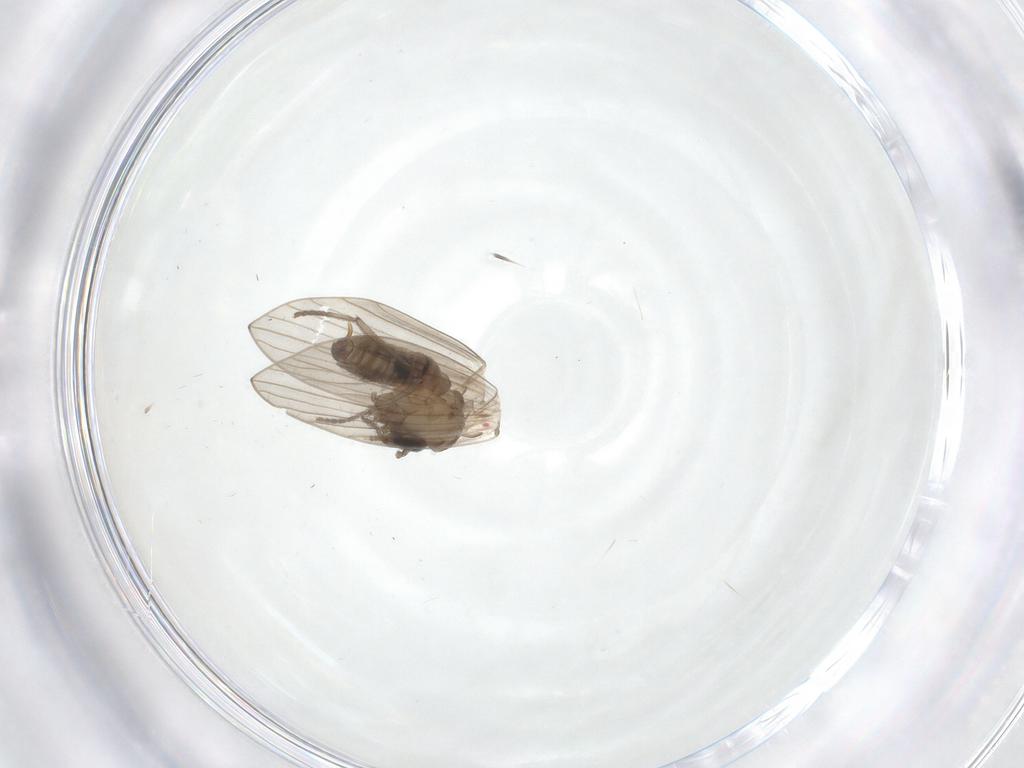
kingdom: Animalia
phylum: Arthropoda
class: Insecta
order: Diptera
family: Psychodidae
